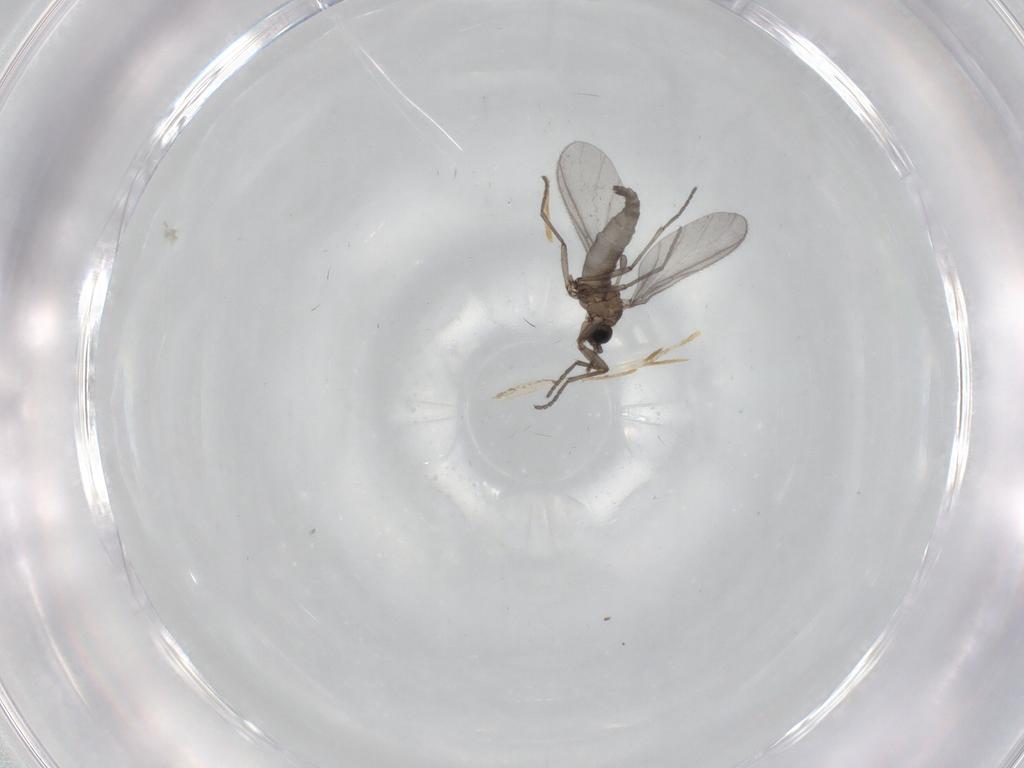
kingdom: Animalia
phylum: Arthropoda
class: Insecta
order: Diptera
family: Sciaridae
